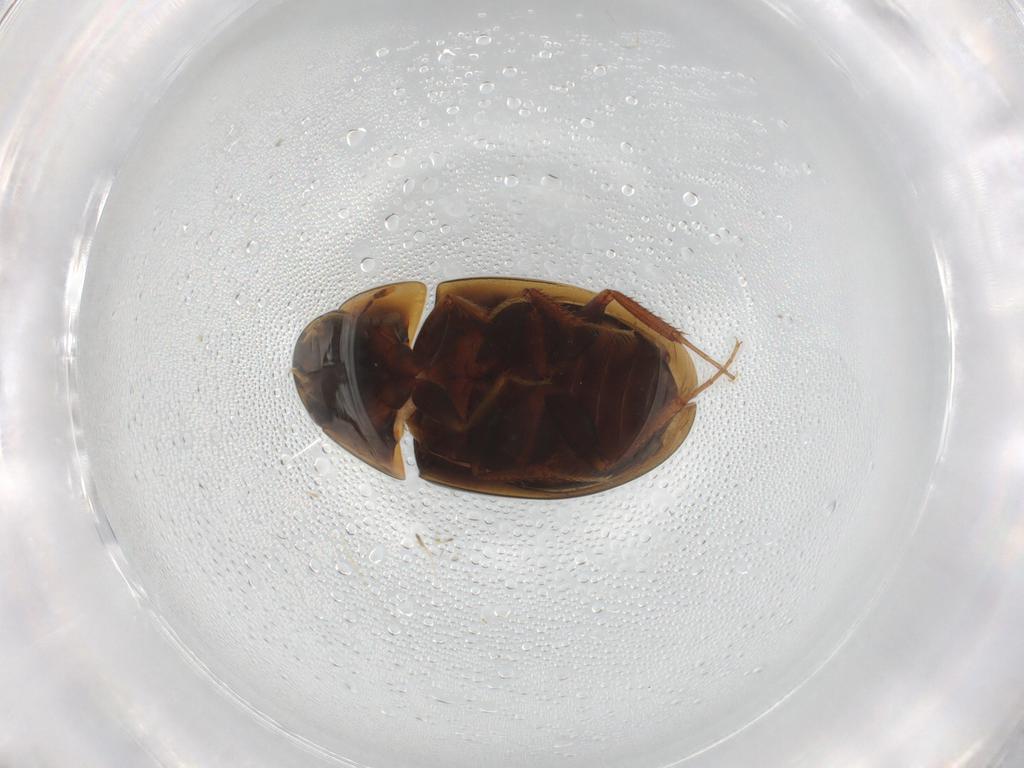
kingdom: Animalia
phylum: Arthropoda
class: Insecta
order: Coleoptera
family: Hydrophilidae
